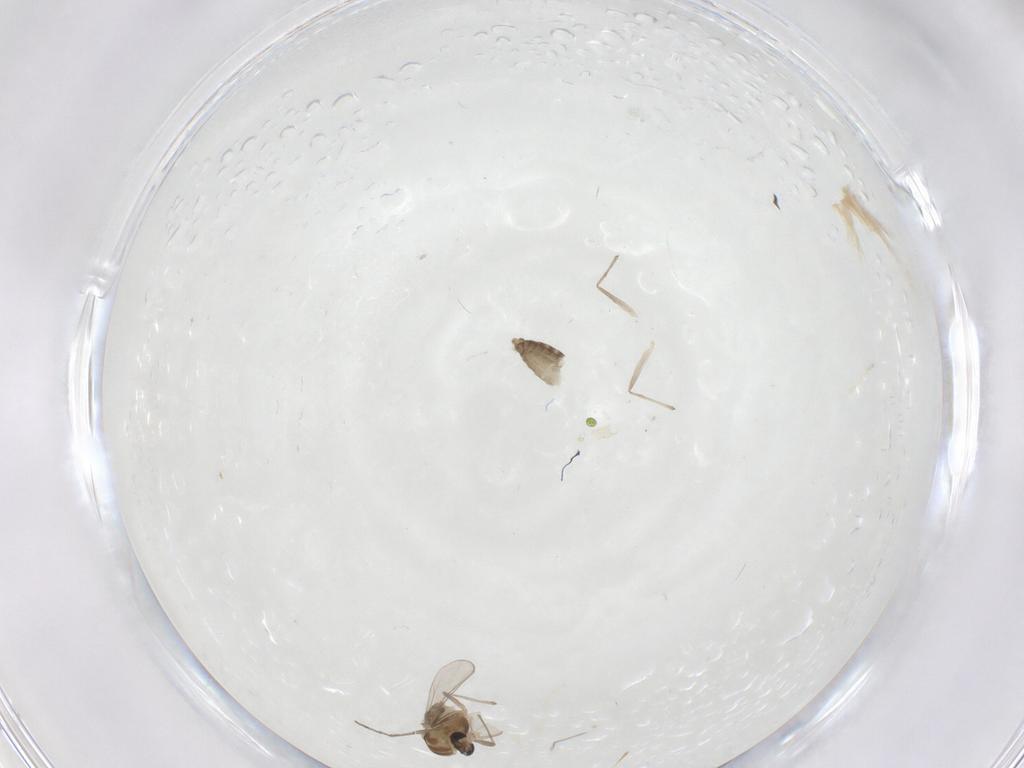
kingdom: Animalia
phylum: Arthropoda
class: Insecta
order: Diptera
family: Chironomidae
